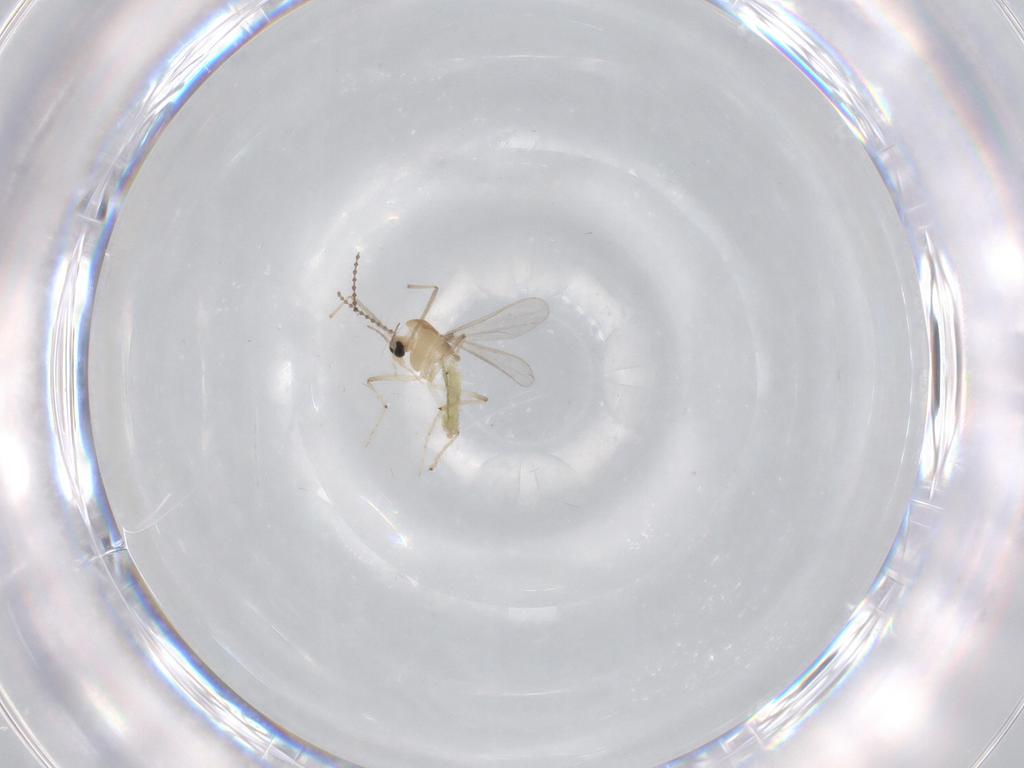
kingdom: Animalia
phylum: Arthropoda
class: Insecta
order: Diptera
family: Chironomidae
